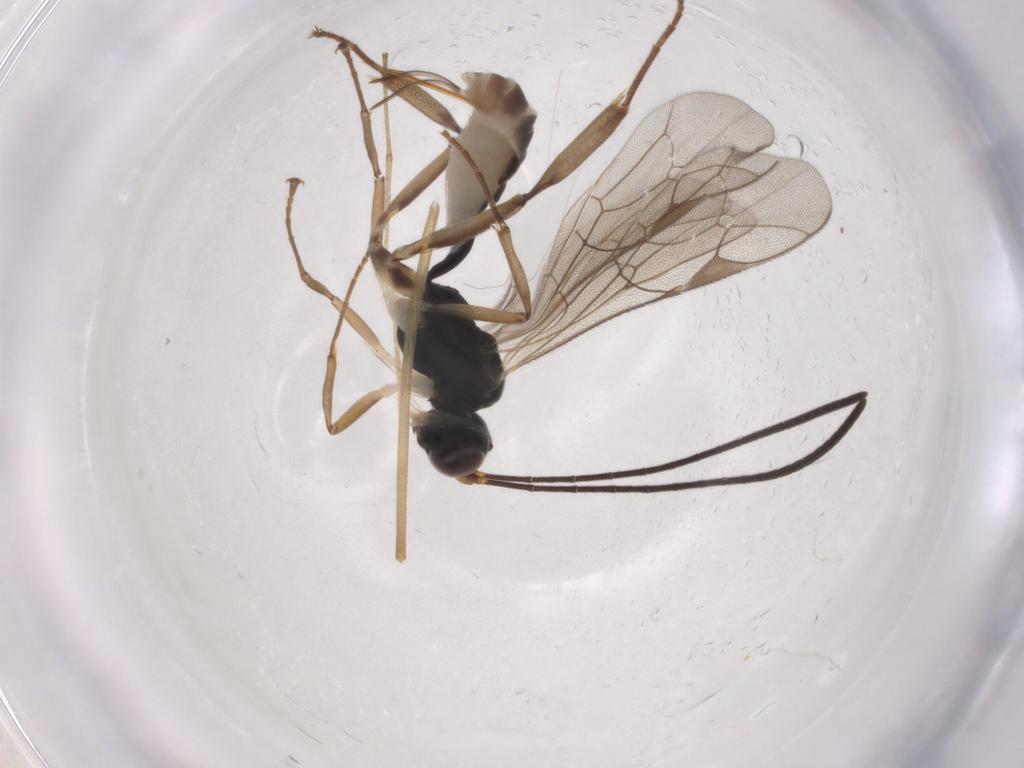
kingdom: Animalia
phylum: Arthropoda
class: Insecta
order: Hymenoptera
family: Ichneumonidae
